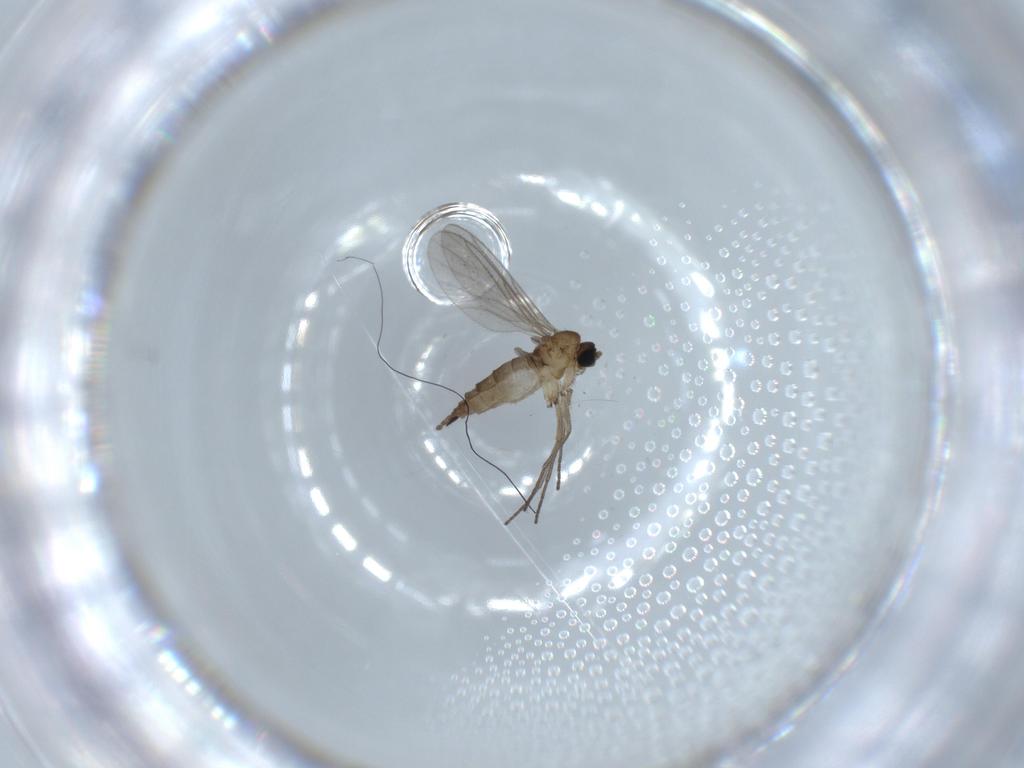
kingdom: Animalia
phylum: Arthropoda
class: Insecta
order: Diptera
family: Sciaridae
